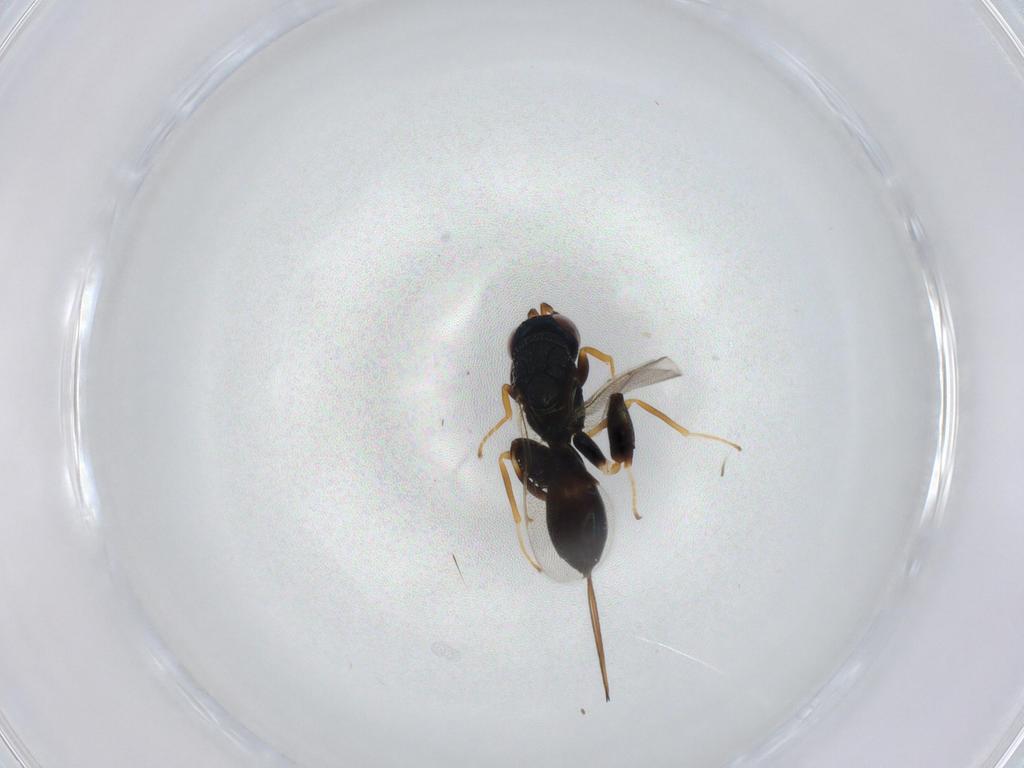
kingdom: Animalia
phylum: Arthropoda
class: Insecta
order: Hymenoptera
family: Torymidae
